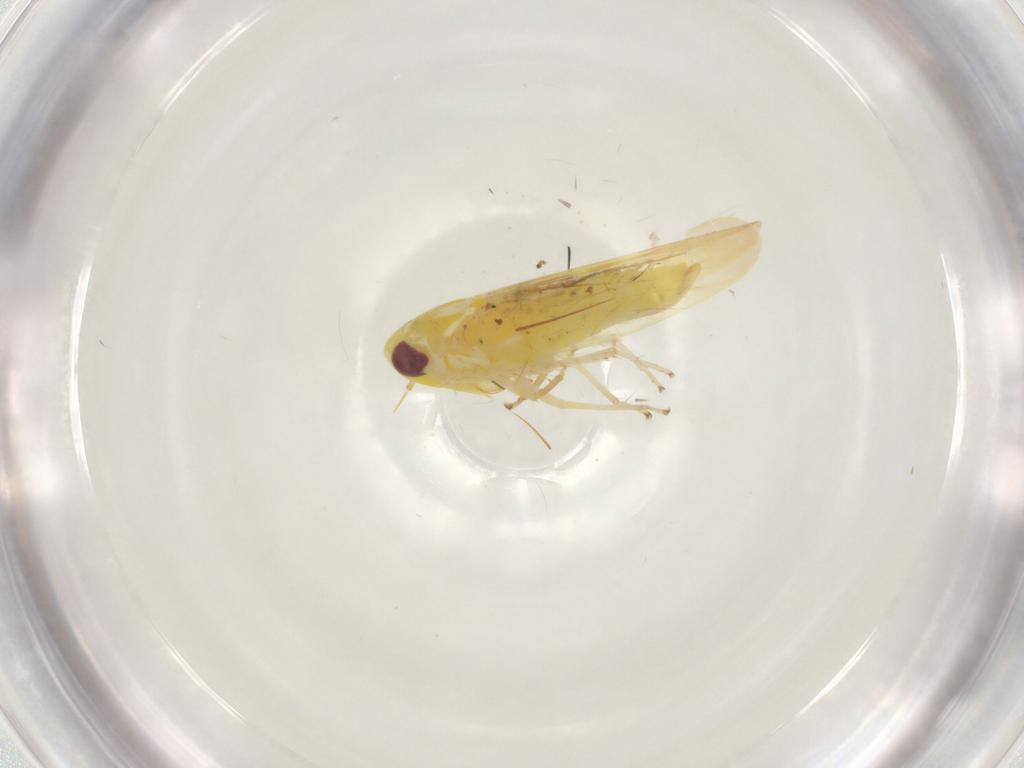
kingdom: Animalia
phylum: Arthropoda
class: Insecta
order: Hemiptera
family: Cicadellidae
